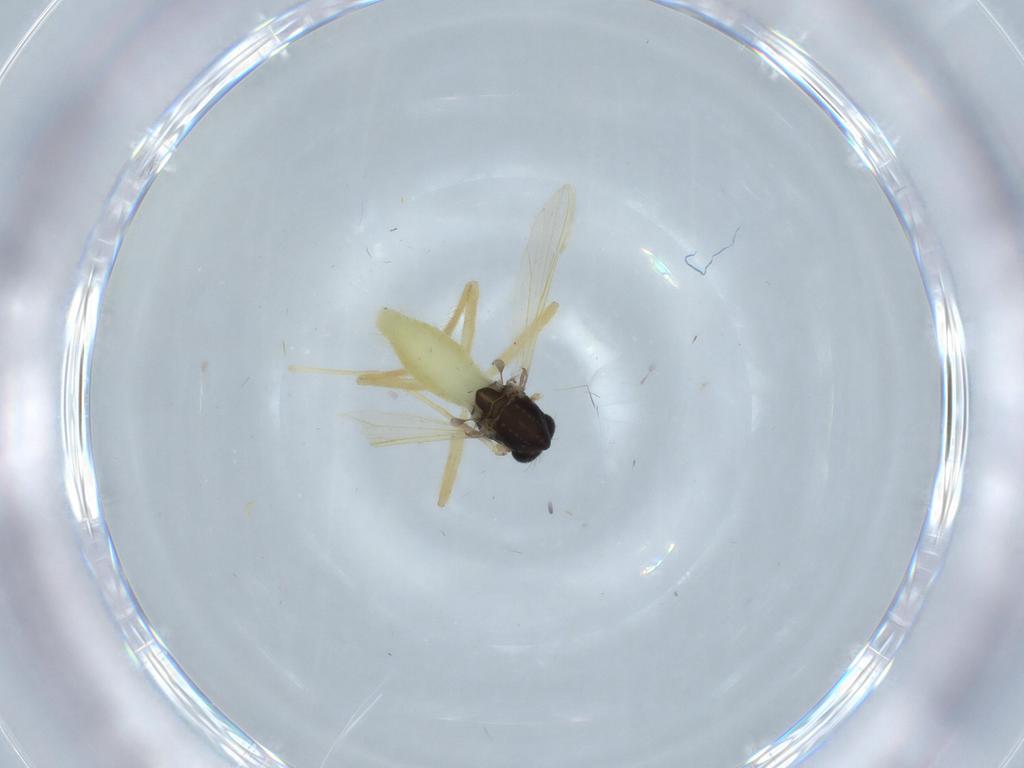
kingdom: Animalia
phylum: Arthropoda
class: Insecta
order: Diptera
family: Chironomidae
